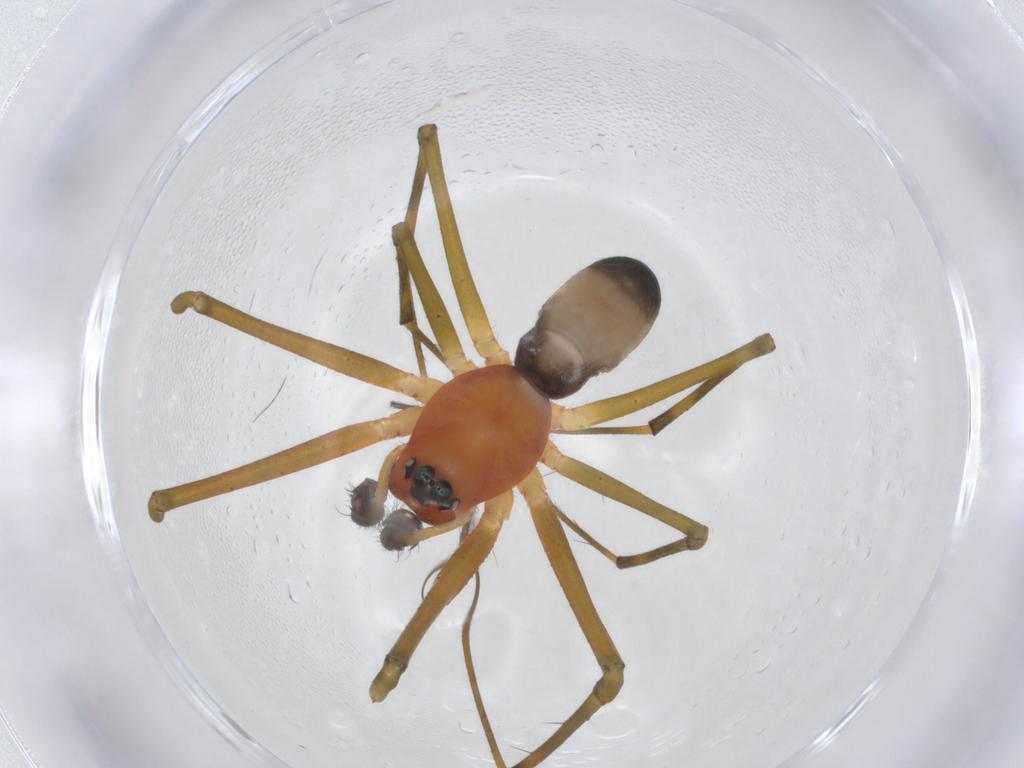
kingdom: Animalia
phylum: Arthropoda
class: Arachnida
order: Araneae
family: Linyphiidae
